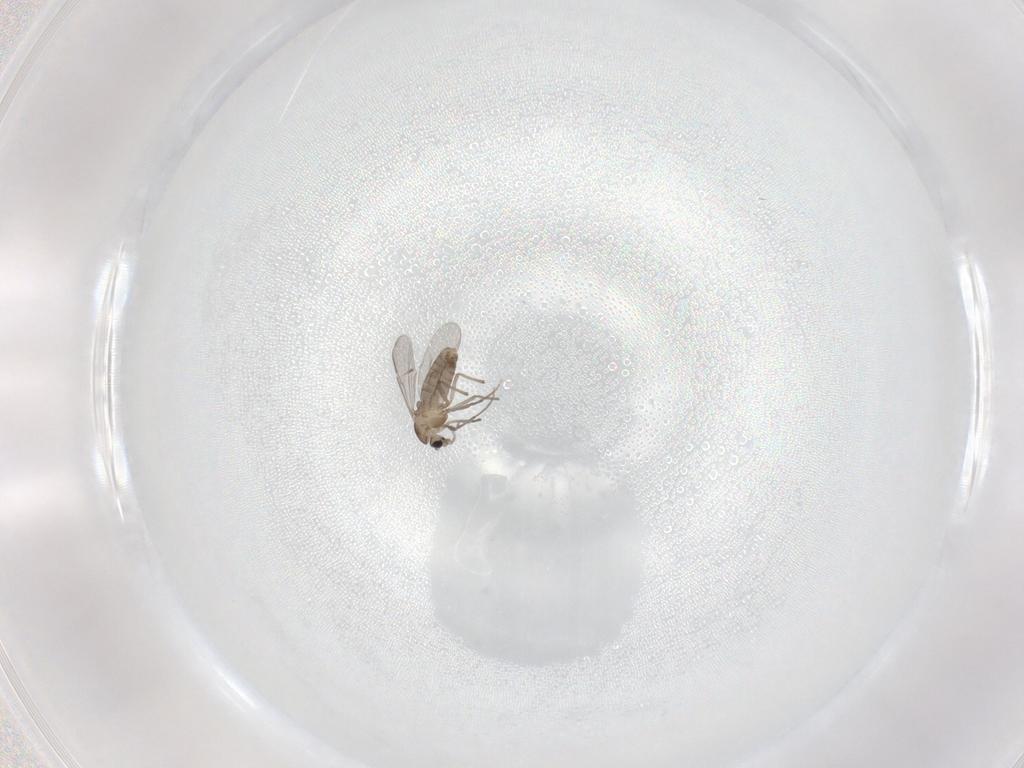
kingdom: Animalia
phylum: Arthropoda
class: Insecta
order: Diptera
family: Chironomidae
